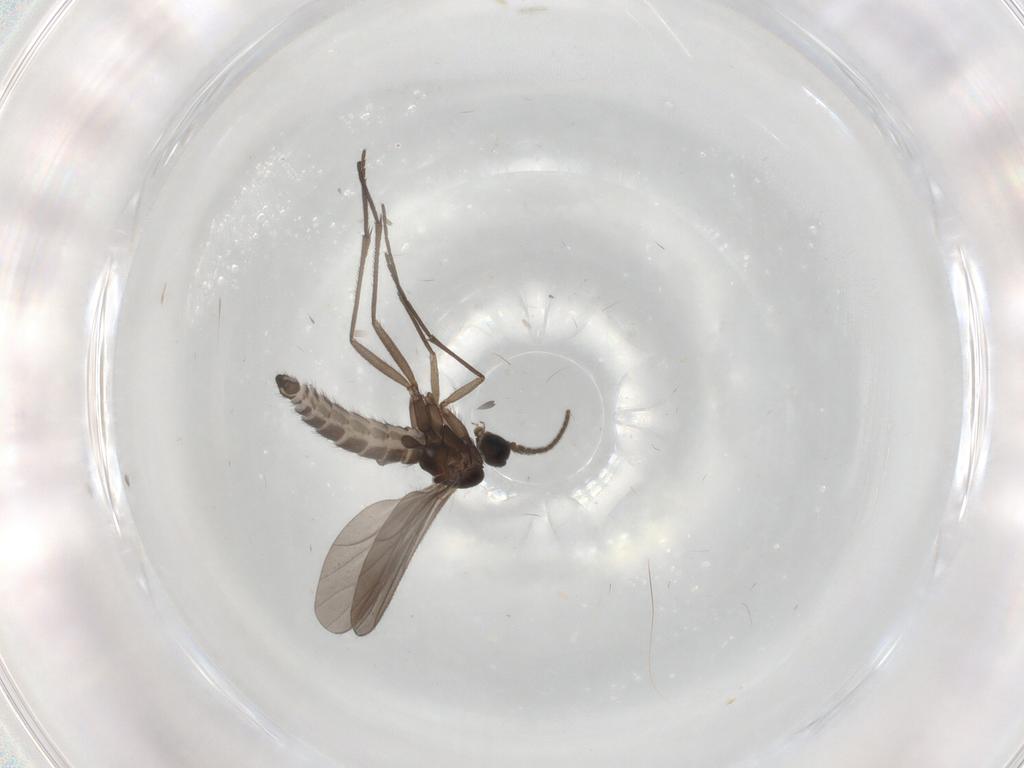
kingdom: Animalia
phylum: Arthropoda
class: Insecta
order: Diptera
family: Sciaridae
